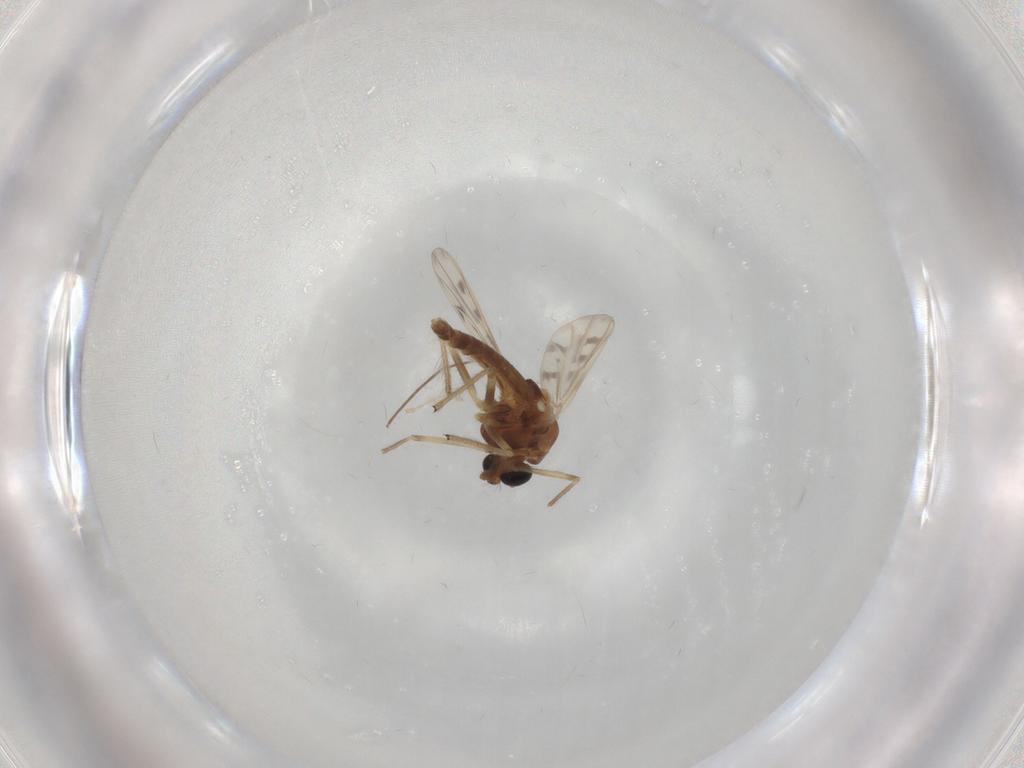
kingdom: Animalia
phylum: Arthropoda
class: Insecta
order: Diptera
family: Chironomidae
